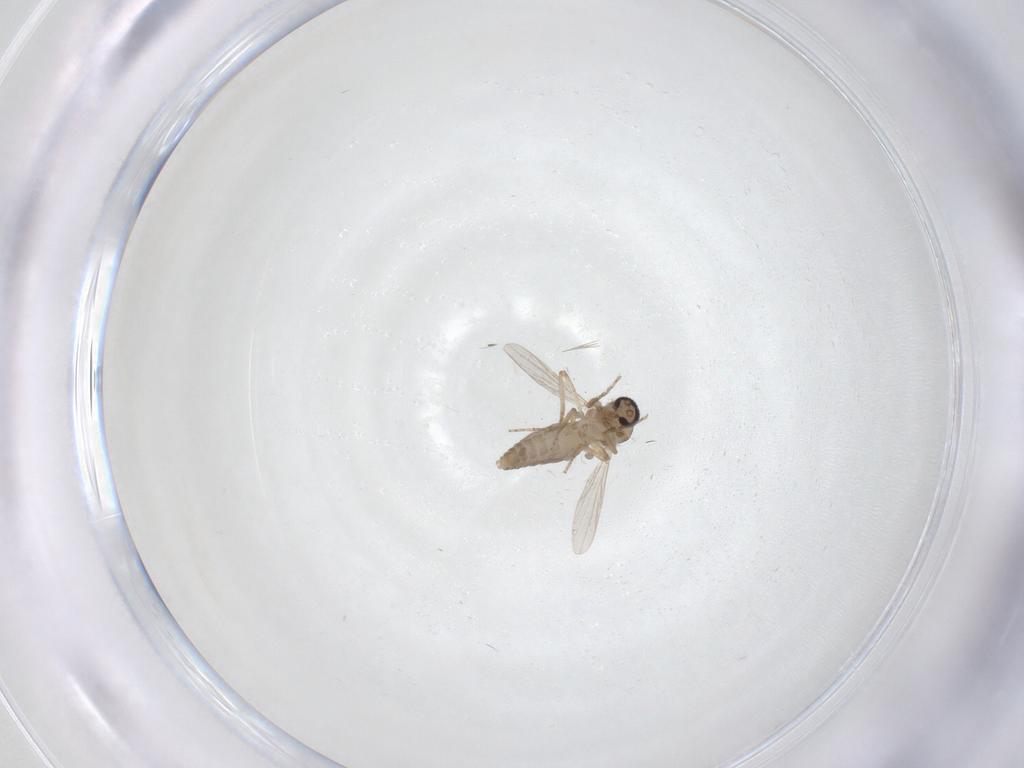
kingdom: Animalia
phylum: Arthropoda
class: Insecta
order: Diptera
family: Ceratopogonidae
